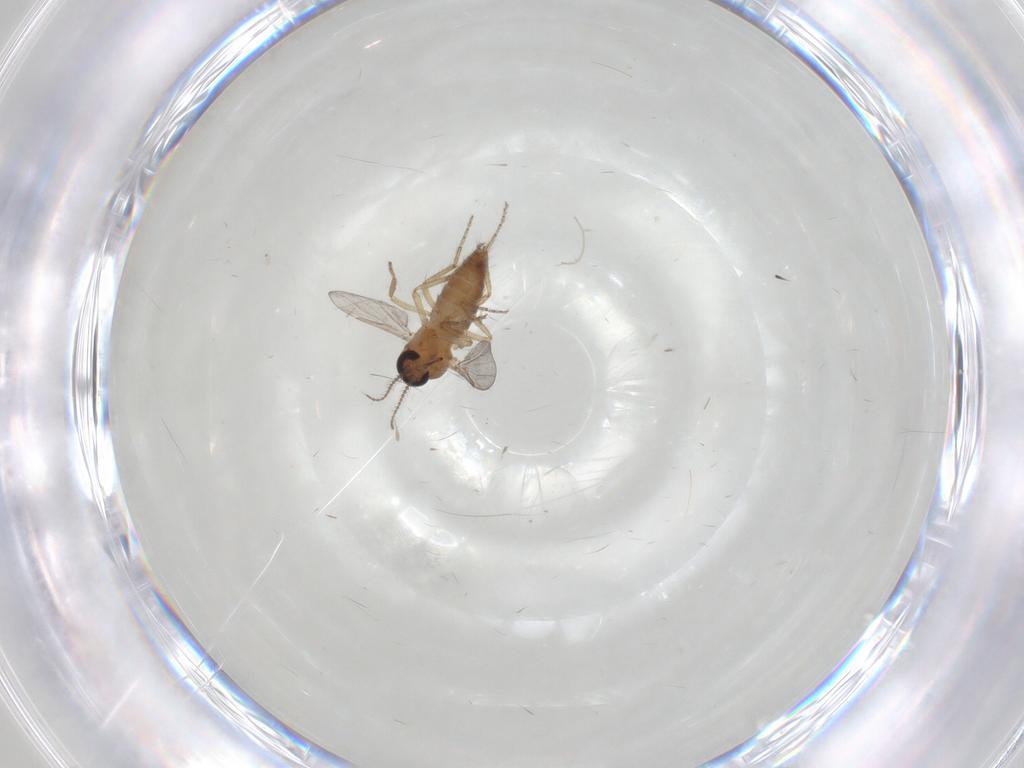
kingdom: Animalia
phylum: Arthropoda
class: Insecta
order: Diptera
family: Ceratopogonidae
